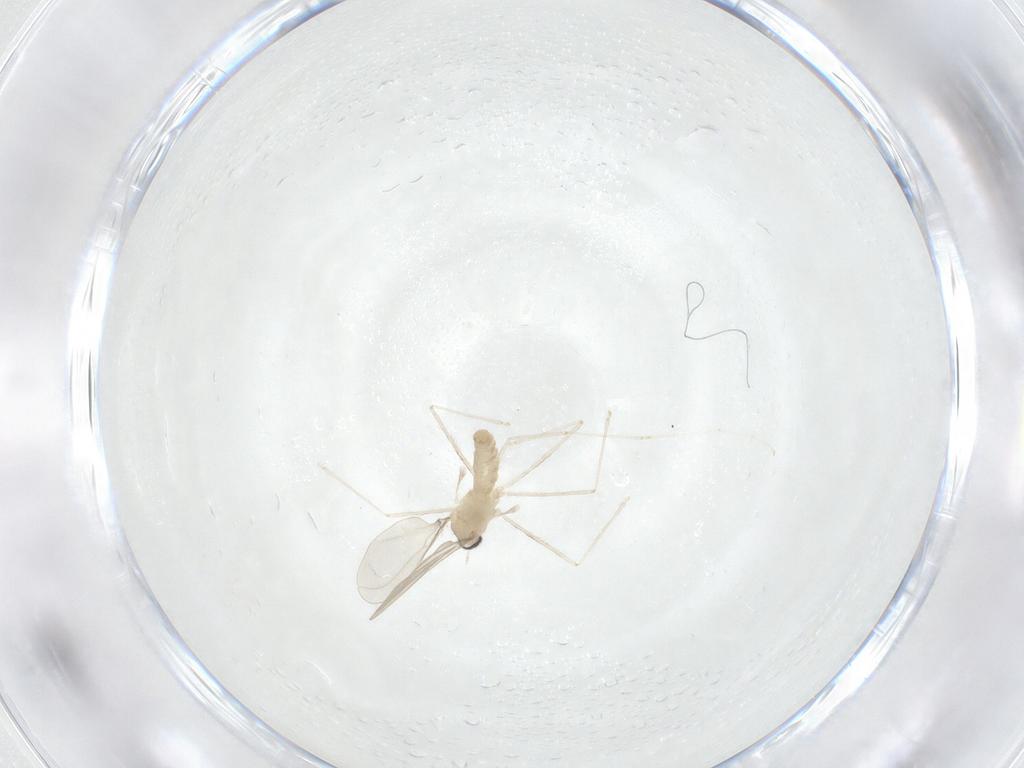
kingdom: Animalia
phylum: Arthropoda
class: Insecta
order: Diptera
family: Cecidomyiidae
